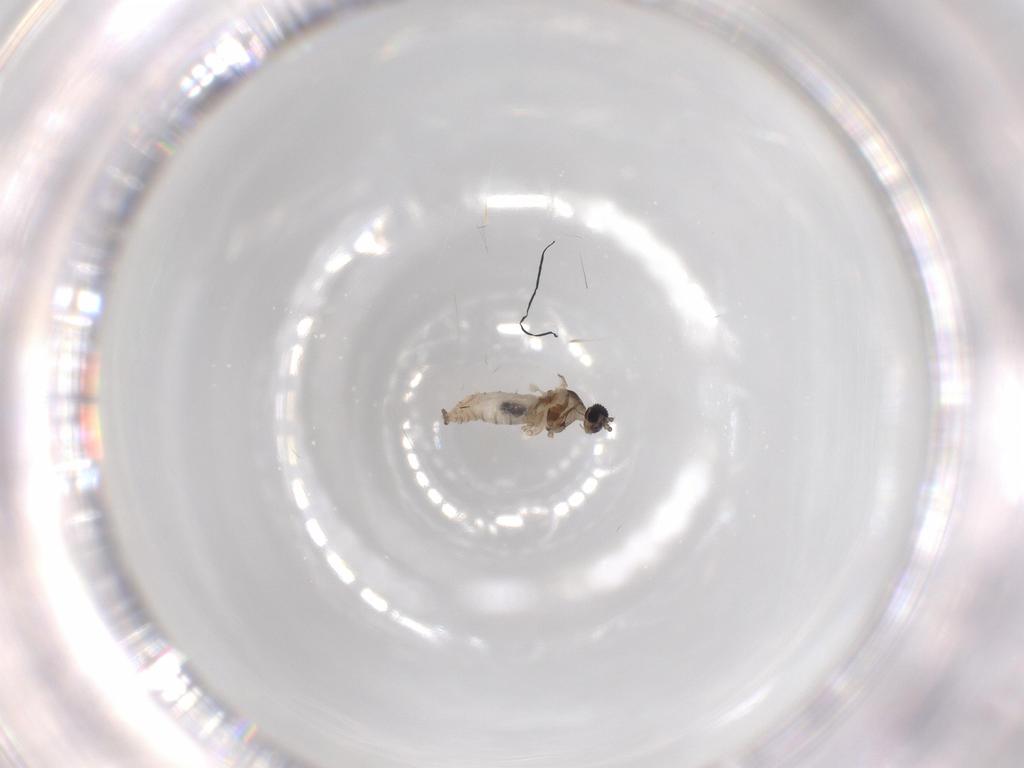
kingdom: Animalia
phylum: Arthropoda
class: Insecta
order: Diptera
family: Cecidomyiidae
